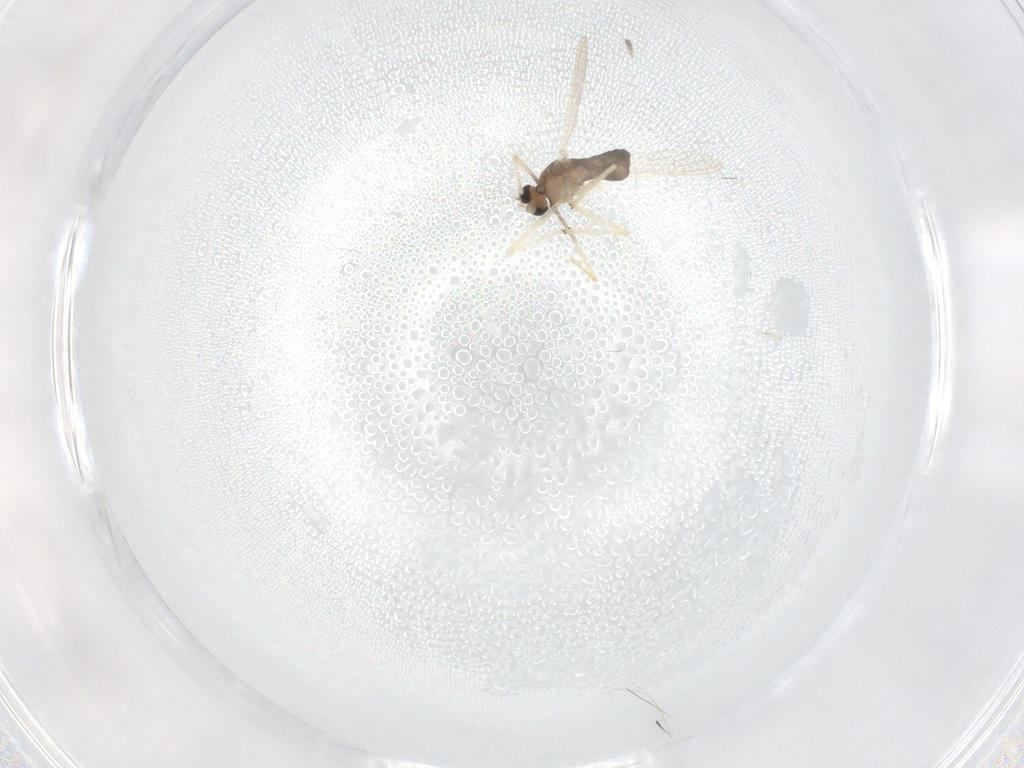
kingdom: Animalia
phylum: Arthropoda
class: Insecta
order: Diptera
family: Chironomidae
